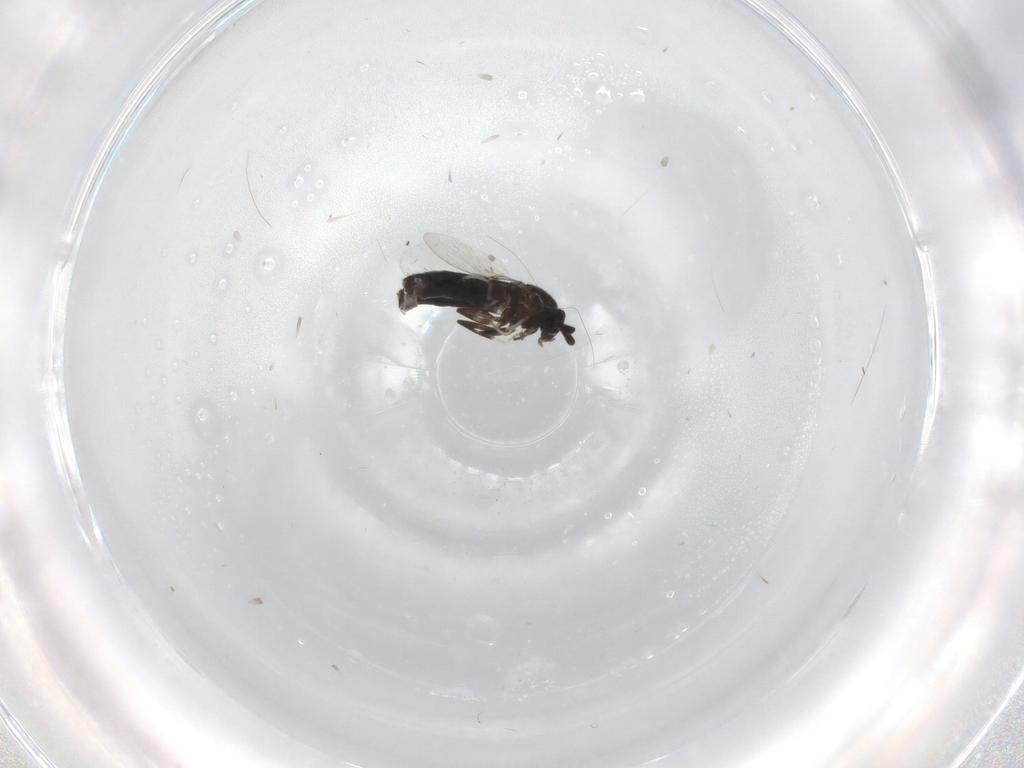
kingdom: Animalia
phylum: Arthropoda
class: Insecta
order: Diptera
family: Scatopsidae
